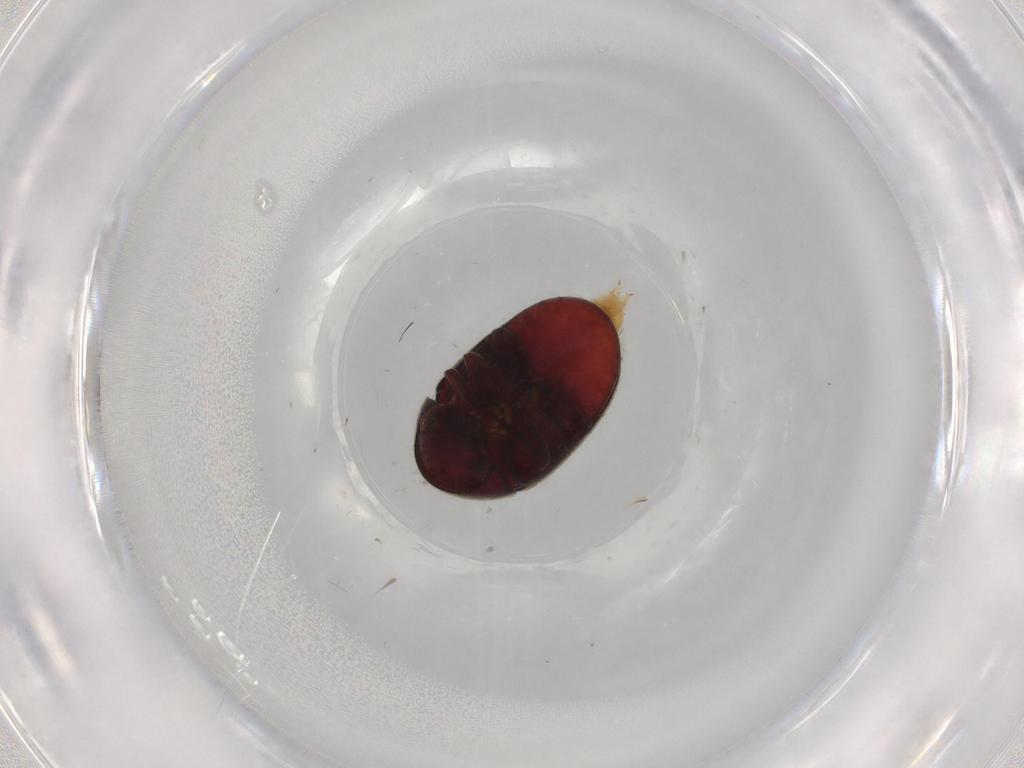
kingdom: Animalia
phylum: Arthropoda
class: Insecta
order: Coleoptera
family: Ptinidae
